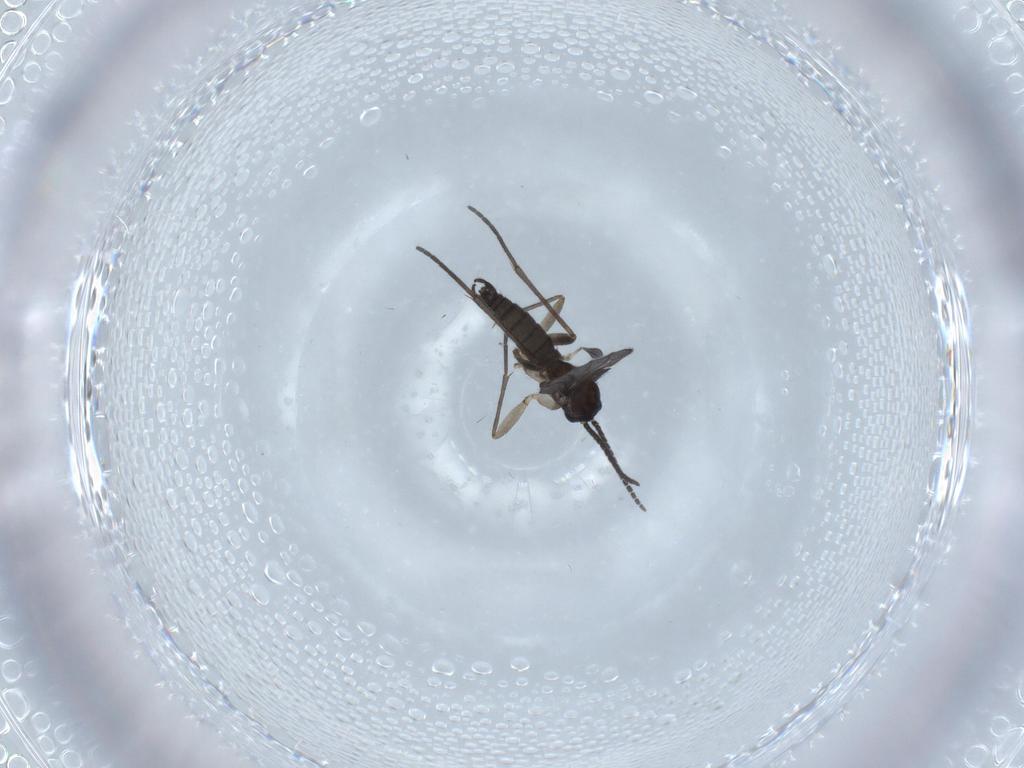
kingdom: Animalia
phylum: Arthropoda
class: Insecta
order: Diptera
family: Sciaridae
